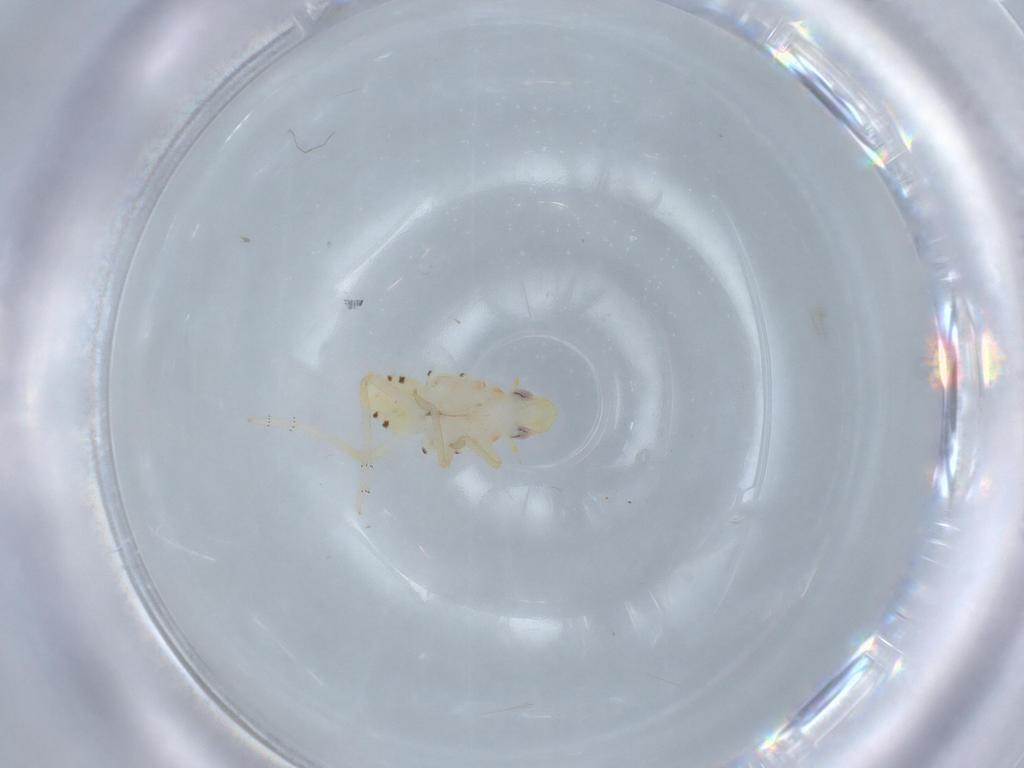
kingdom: Animalia
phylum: Arthropoda
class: Insecta
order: Hemiptera
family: Tropiduchidae
